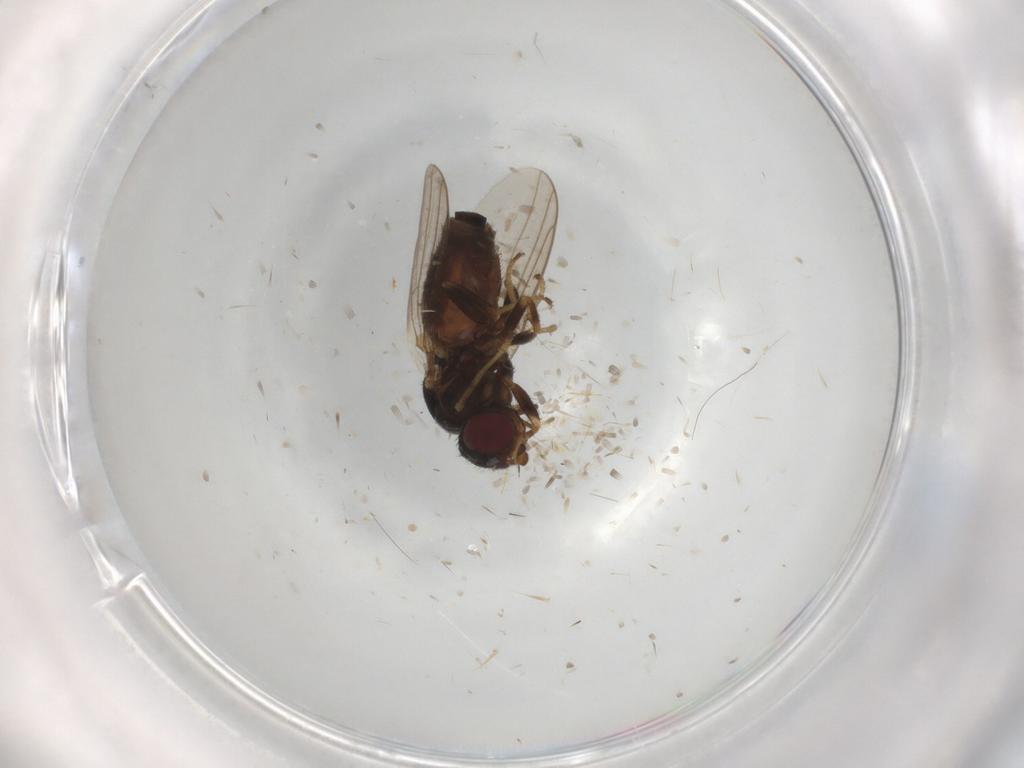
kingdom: Animalia
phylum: Arthropoda
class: Insecta
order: Diptera
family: Chloropidae
